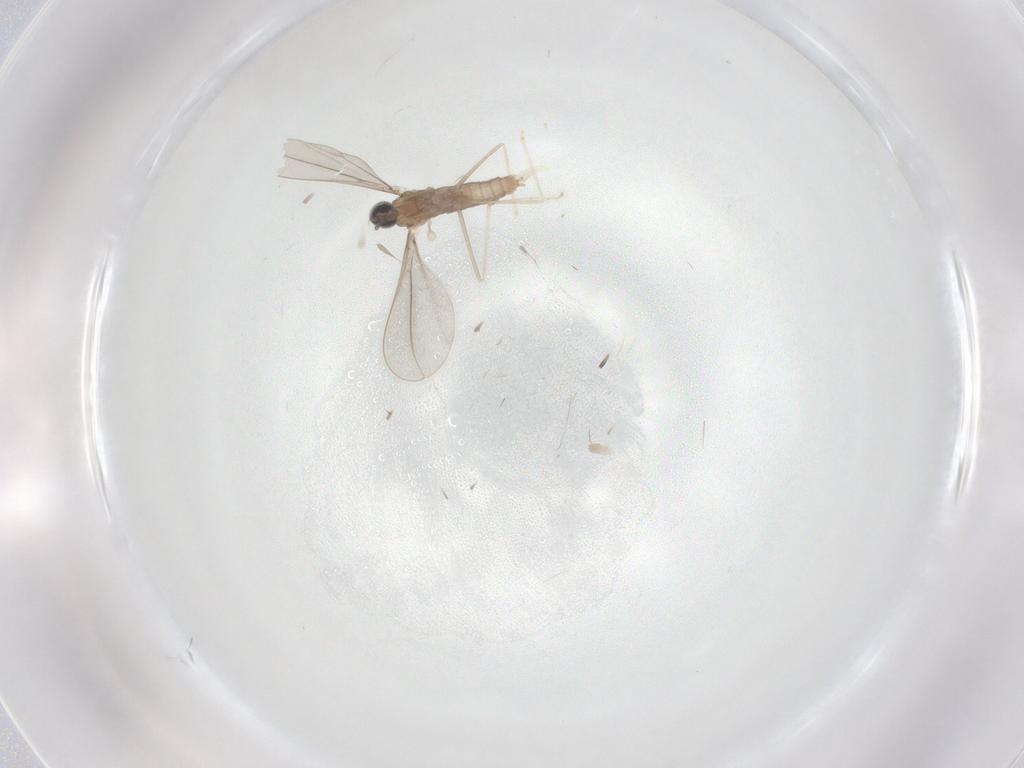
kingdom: Animalia
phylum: Arthropoda
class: Insecta
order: Diptera
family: Cecidomyiidae
